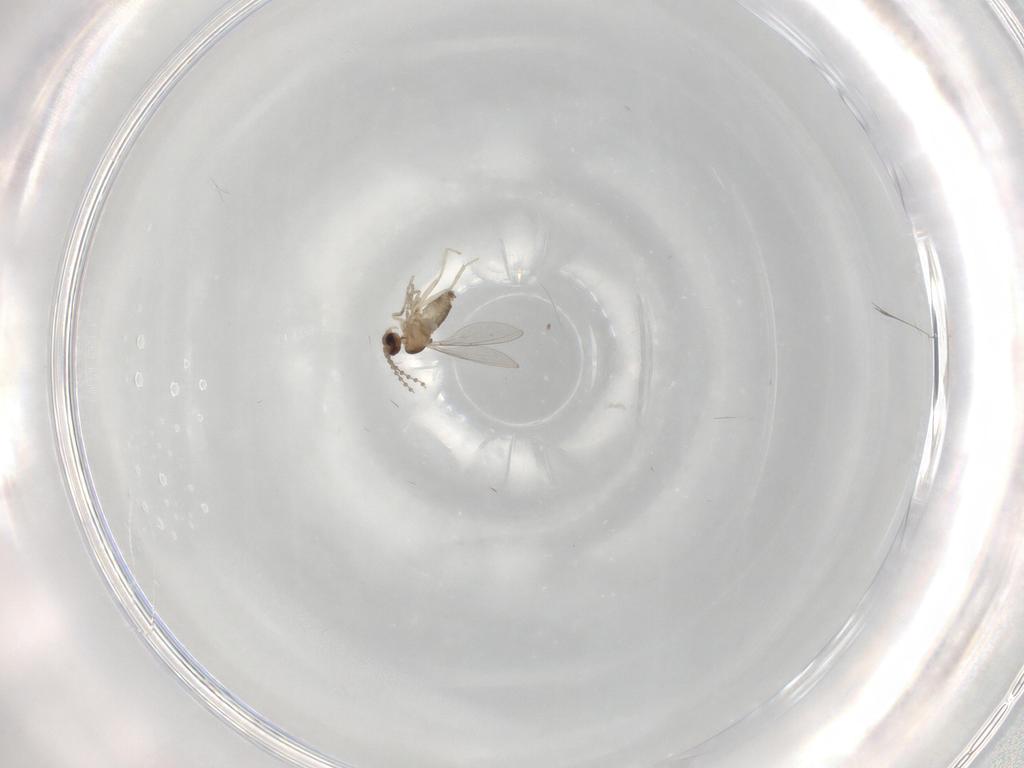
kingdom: Animalia
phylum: Arthropoda
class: Insecta
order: Diptera
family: Cecidomyiidae
